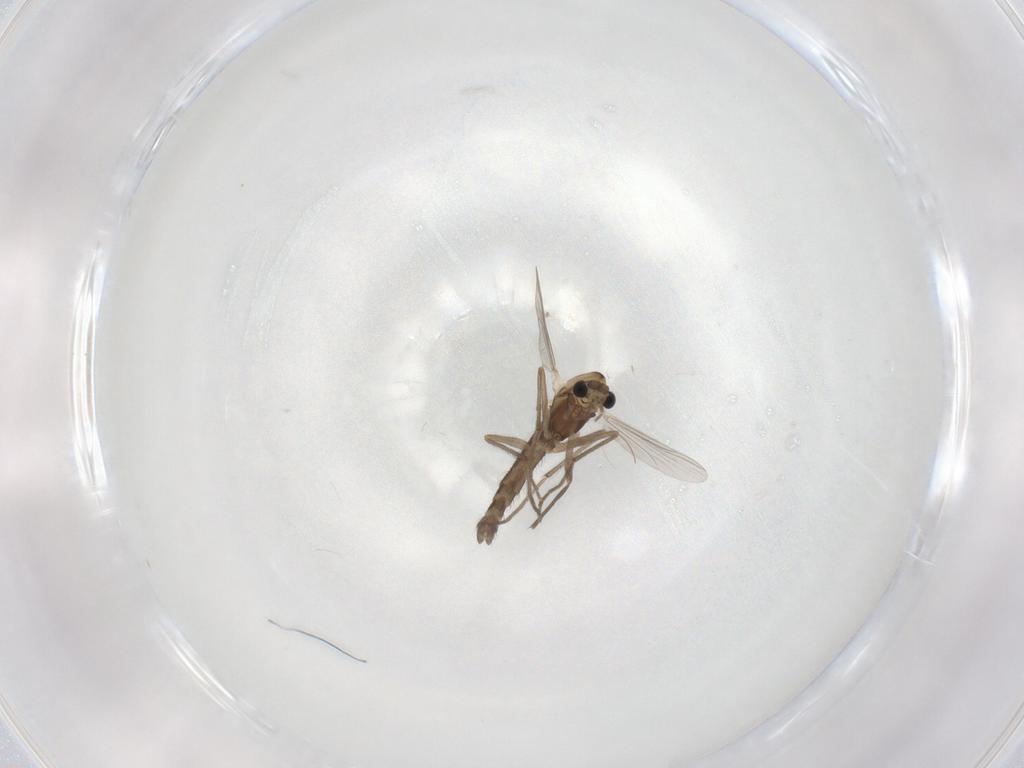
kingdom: Animalia
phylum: Arthropoda
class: Insecta
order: Diptera
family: Chironomidae
